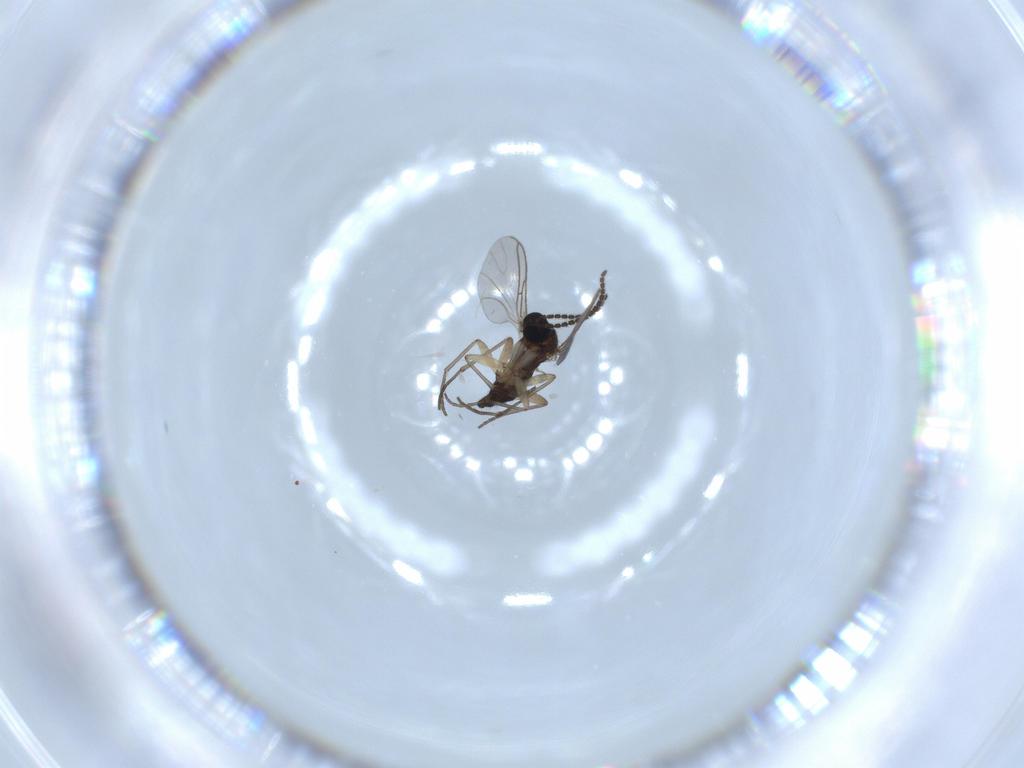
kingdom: Animalia
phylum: Arthropoda
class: Insecta
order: Diptera
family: Sciaridae
